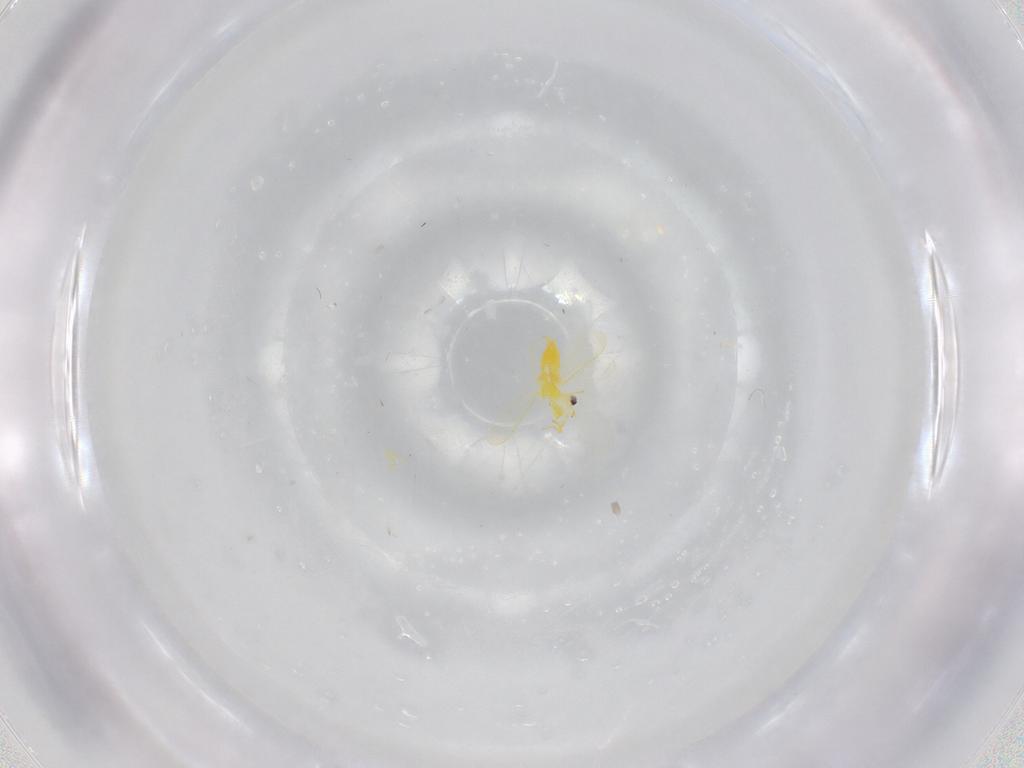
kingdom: Animalia
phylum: Arthropoda
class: Insecta
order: Hemiptera
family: Aleyrodidae
